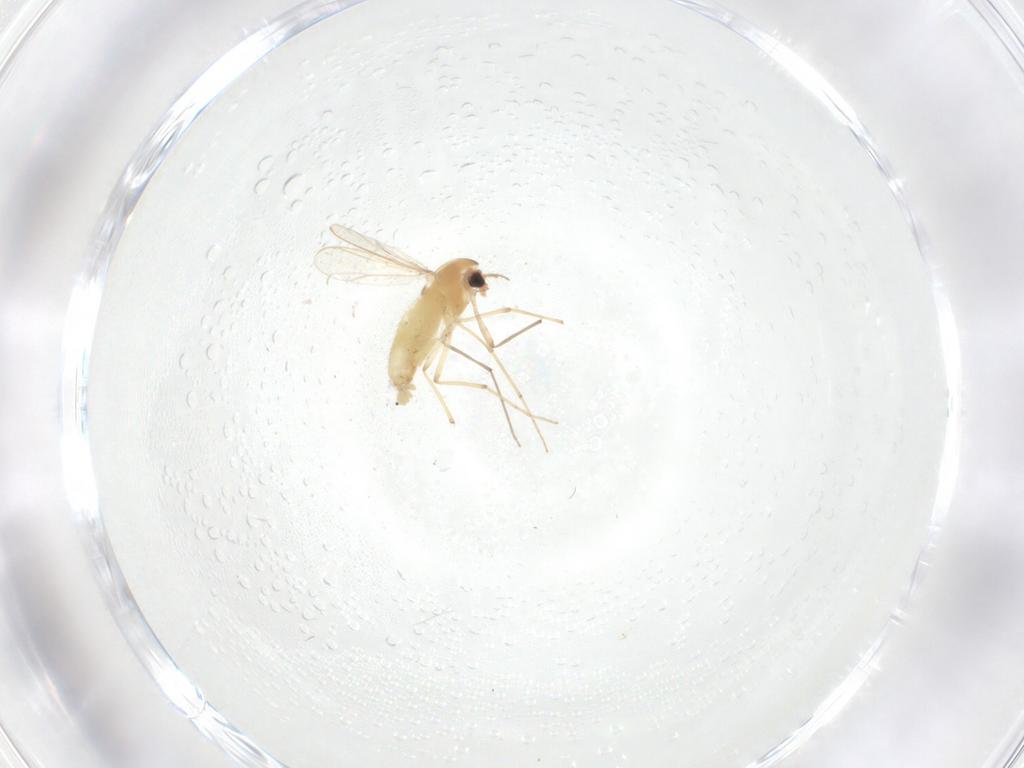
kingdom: Animalia
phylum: Arthropoda
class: Insecta
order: Diptera
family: Chironomidae
